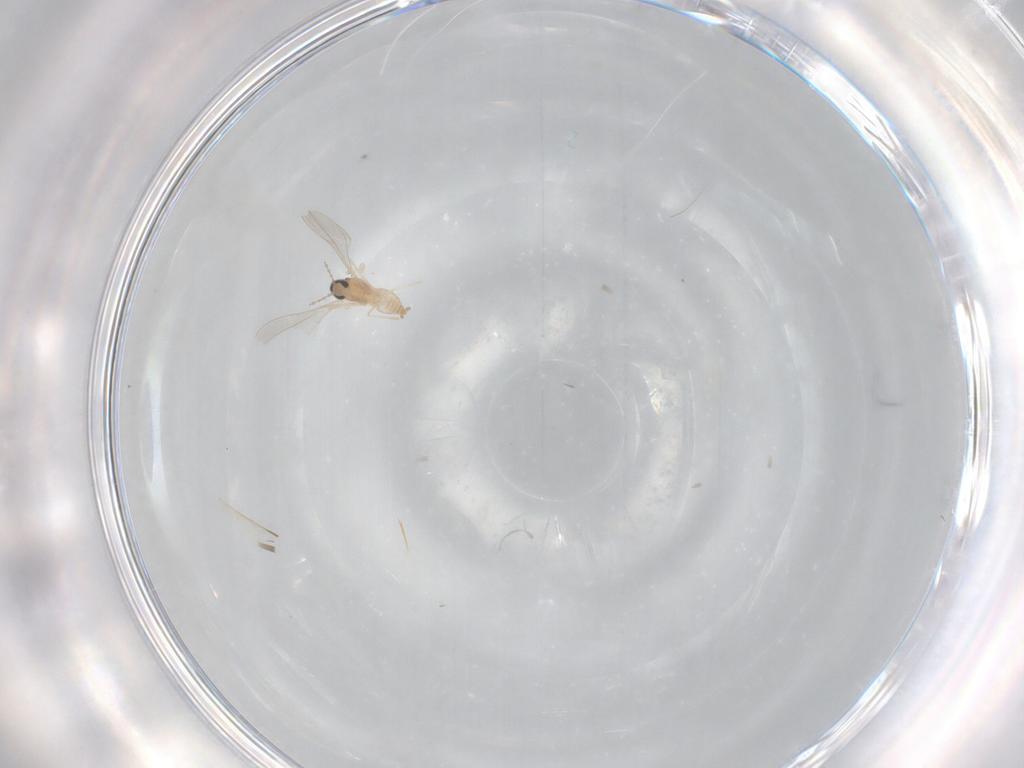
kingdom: Animalia
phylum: Arthropoda
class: Insecta
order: Diptera
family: Cecidomyiidae
